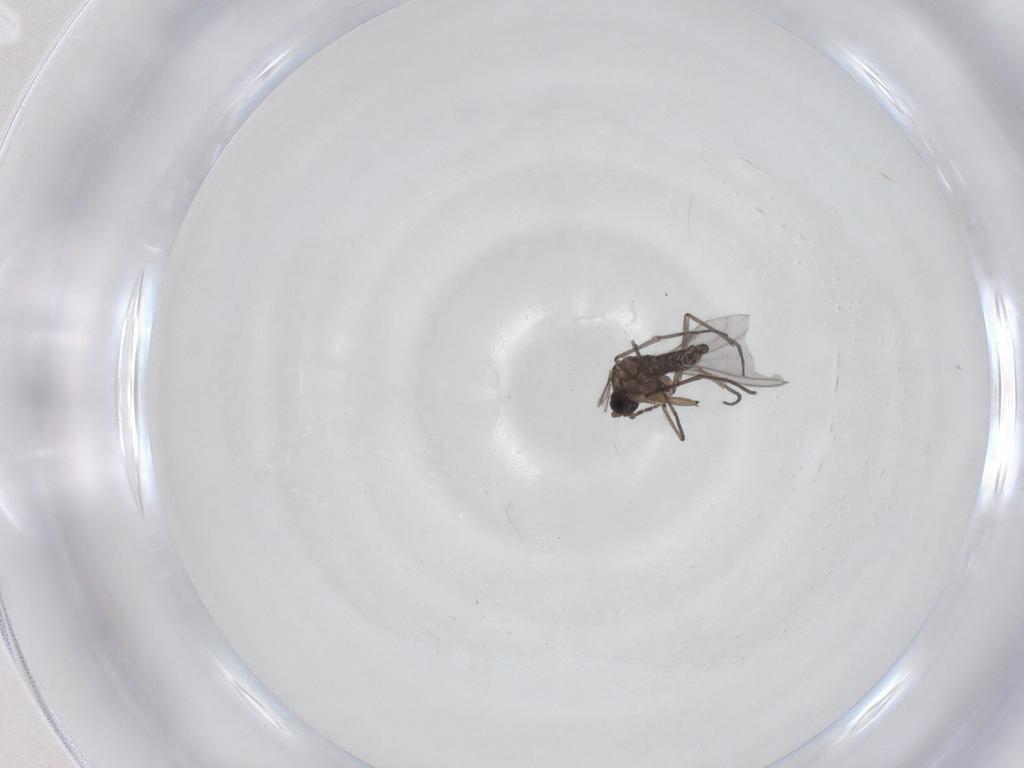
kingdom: Animalia
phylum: Arthropoda
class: Insecta
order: Diptera
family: Sciaridae
